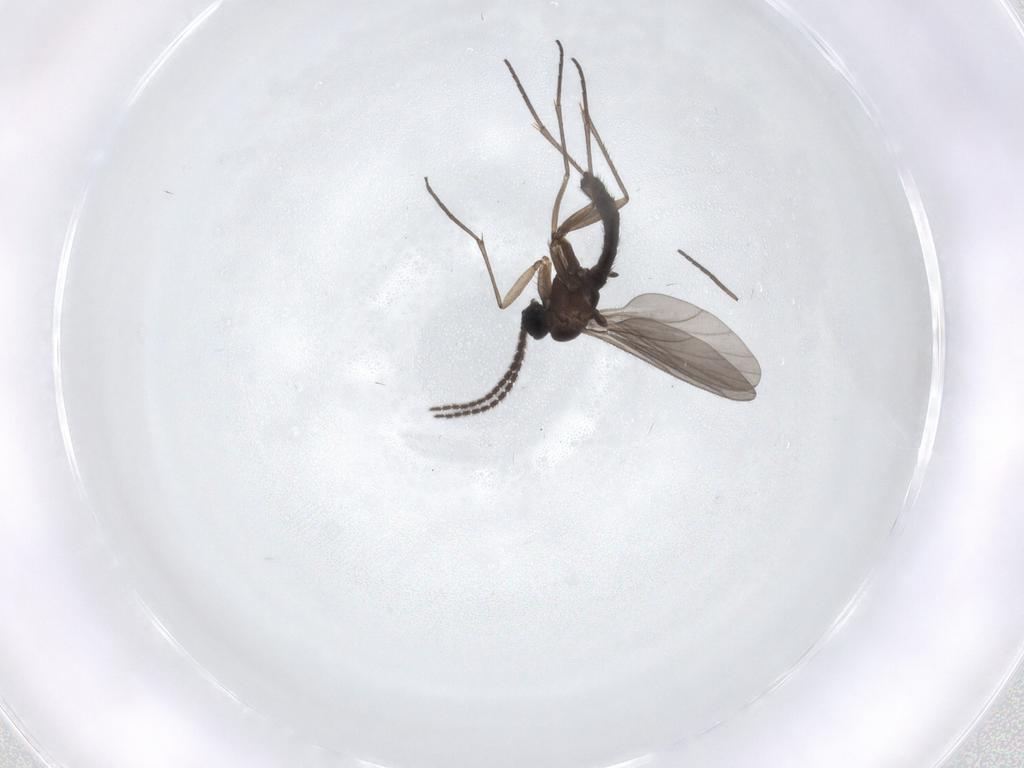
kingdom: Animalia
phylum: Arthropoda
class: Insecta
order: Diptera
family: Sciaridae
